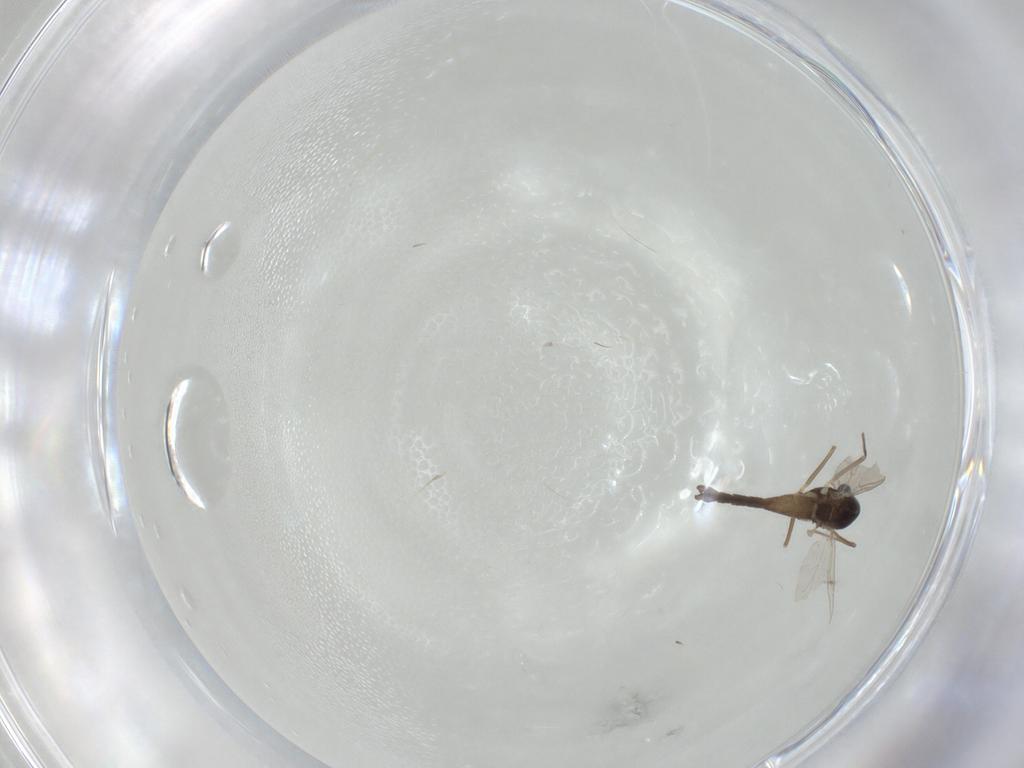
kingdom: Animalia
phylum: Arthropoda
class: Insecta
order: Diptera
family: Chironomidae
